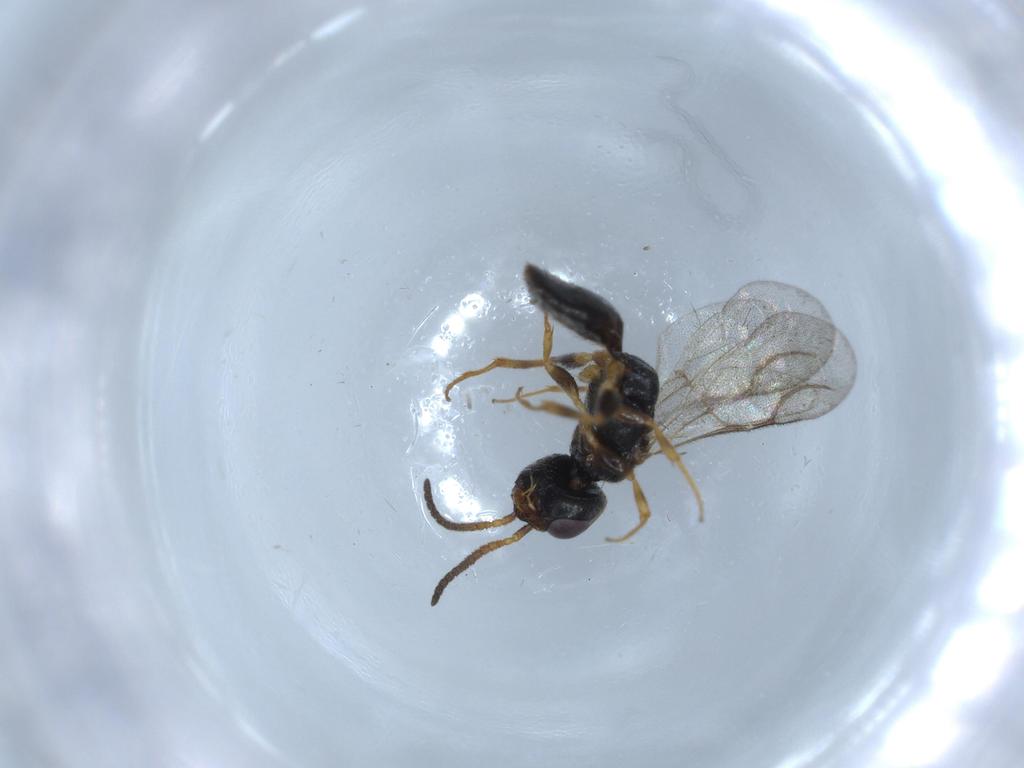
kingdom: Animalia
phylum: Arthropoda
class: Insecta
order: Hymenoptera
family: Bethylidae
